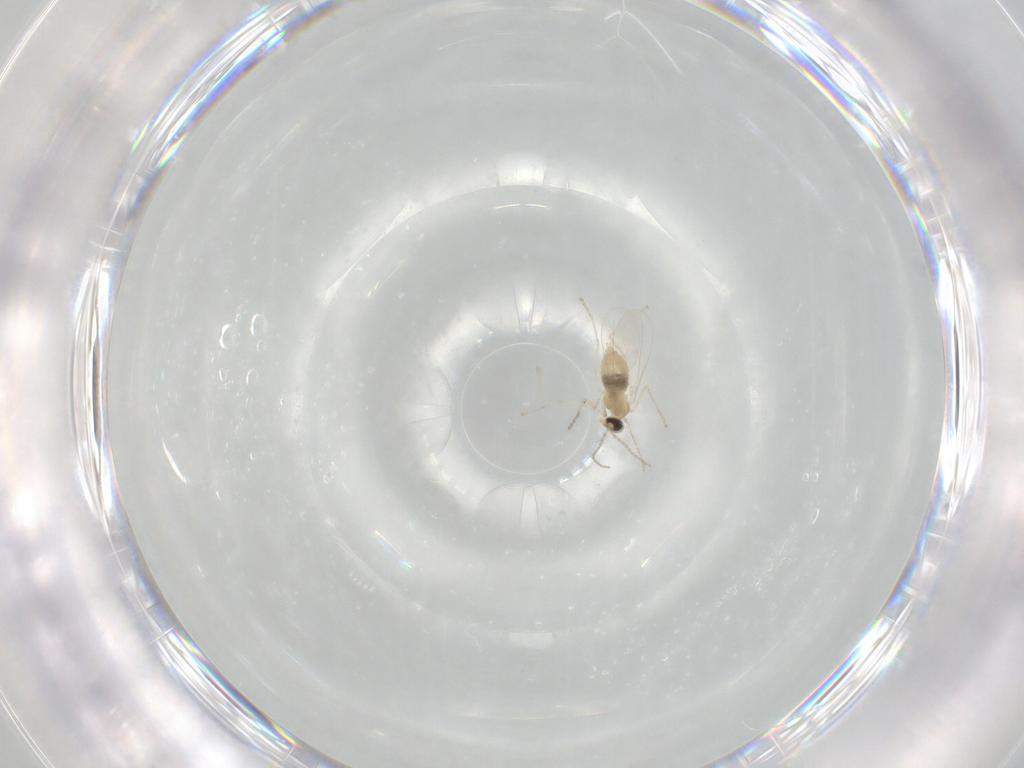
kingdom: Animalia
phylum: Arthropoda
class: Insecta
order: Diptera
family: Cecidomyiidae
